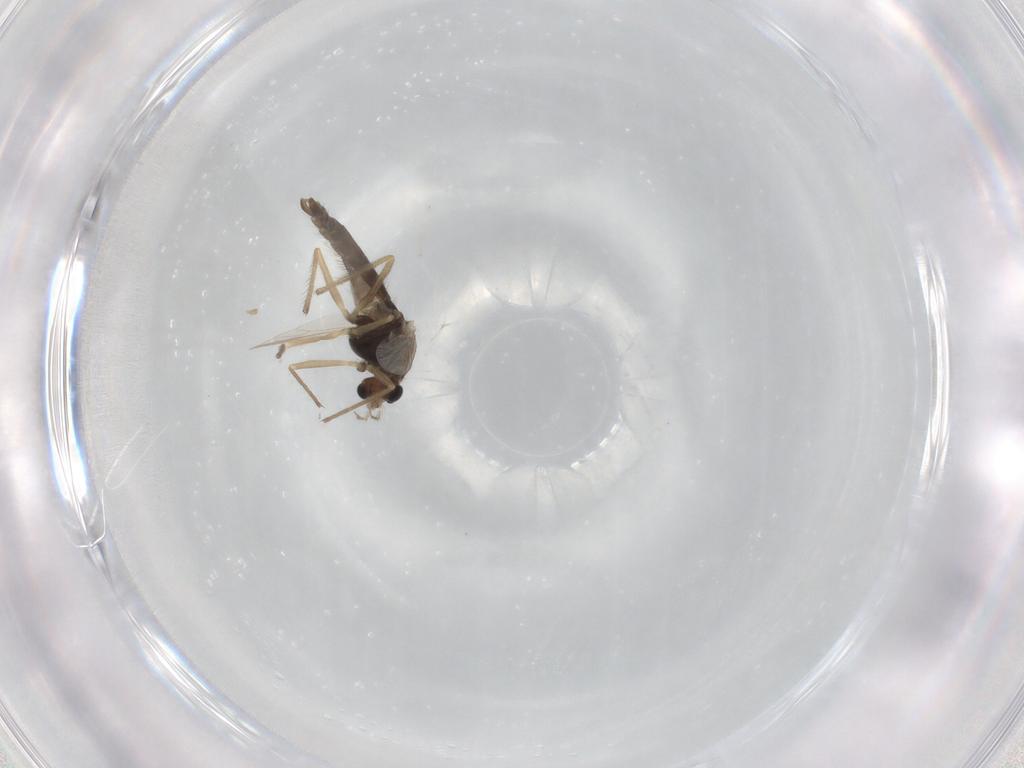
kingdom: Animalia
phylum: Arthropoda
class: Insecta
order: Diptera
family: Chironomidae
